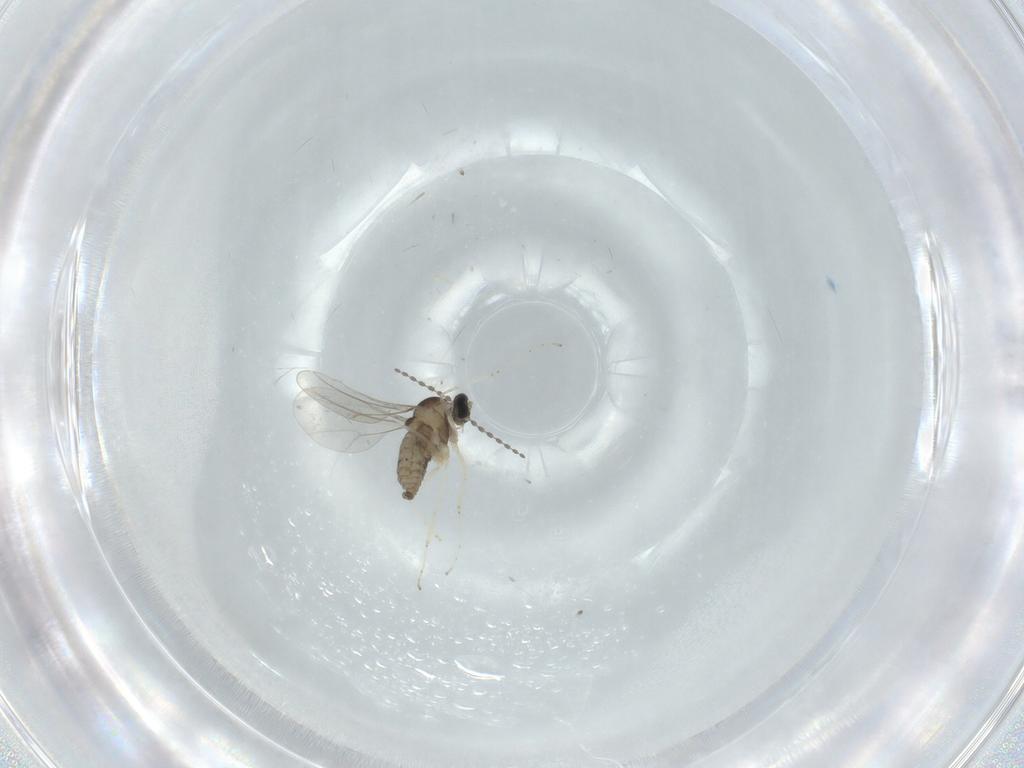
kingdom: Animalia
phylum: Arthropoda
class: Insecta
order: Diptera
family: Cecidomyiidae
